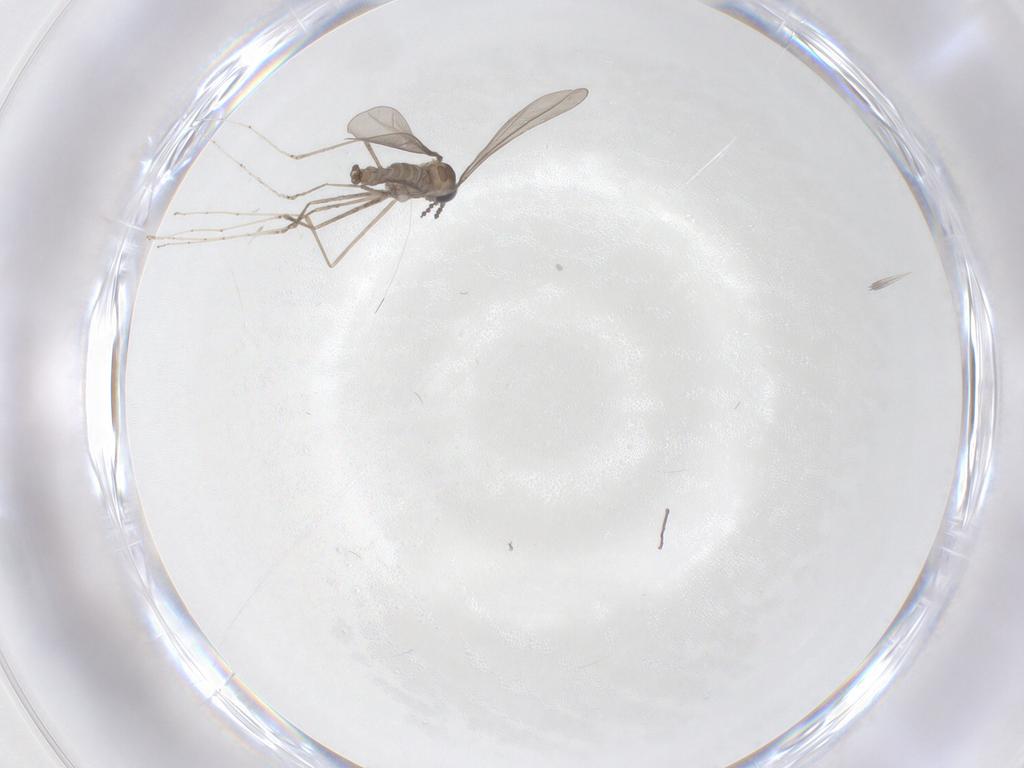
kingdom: Animalia
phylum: Arthropoda
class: Insecta
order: Diptera
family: Cecidomyiidae
